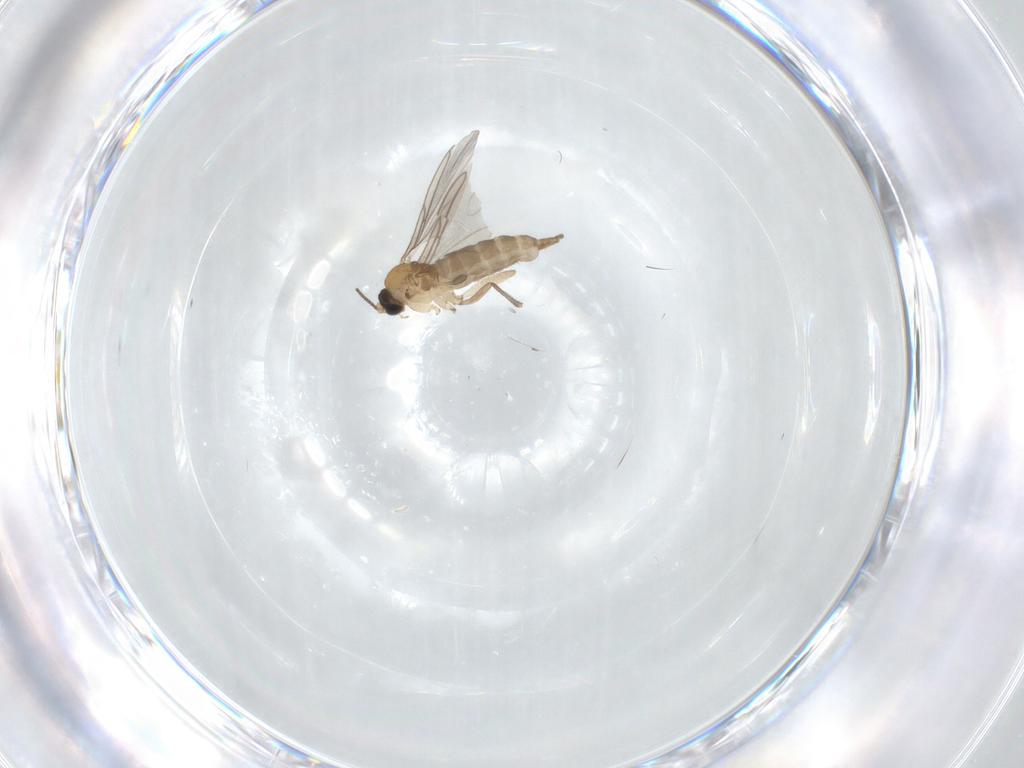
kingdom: Animalia
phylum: Arthropoda
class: Insecta
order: Diptera
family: Sciaridae
